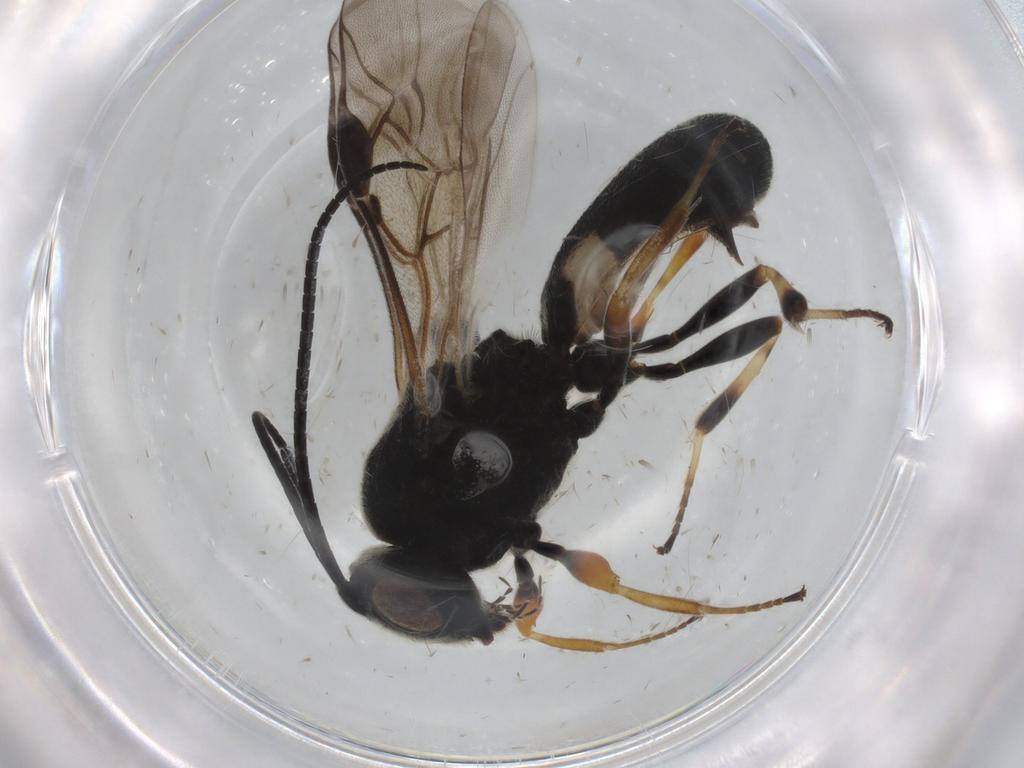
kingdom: Animalia
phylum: Arthropoda
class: Insecta
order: Hymenoptera
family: Braconidae
